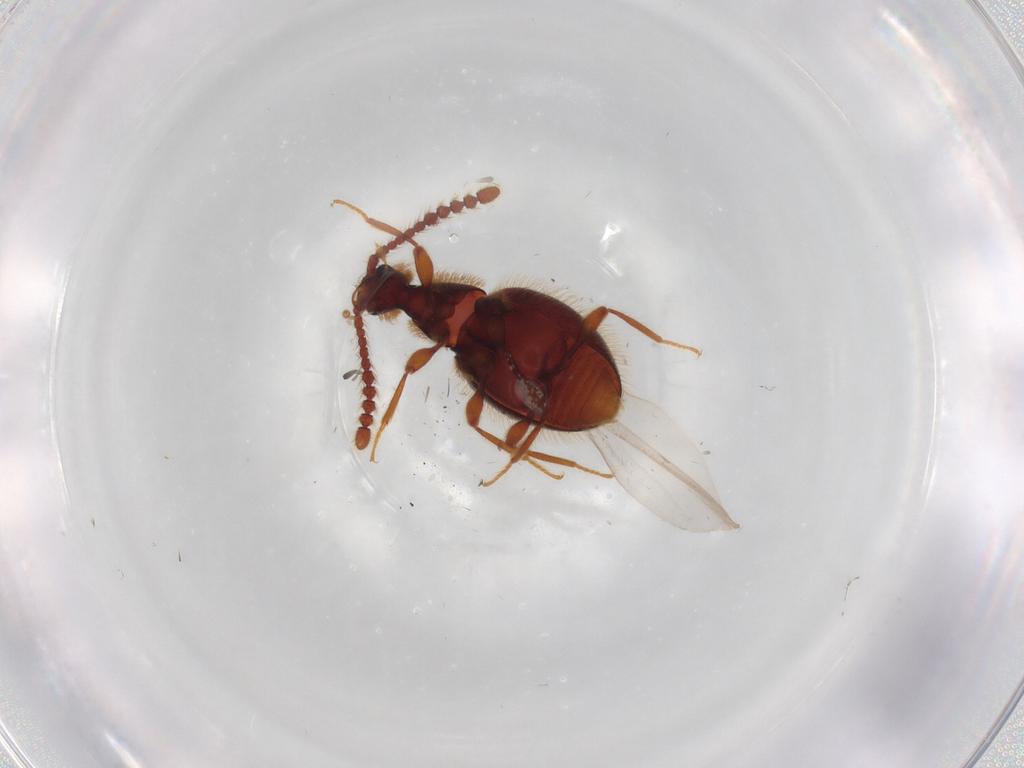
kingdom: Animalia
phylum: Arthropoda
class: Insecta
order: Coleoptera
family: Staphylinidae
